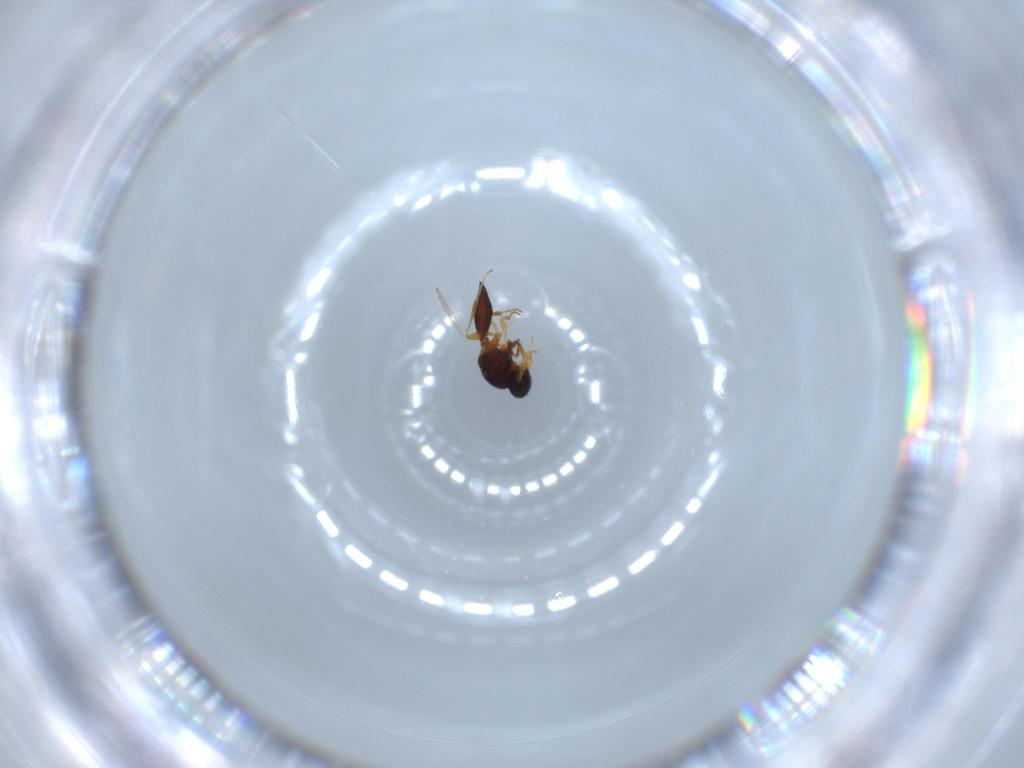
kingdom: Animalia
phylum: Arthropoda
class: Insecta
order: Hymenoptera
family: Platygastridae
